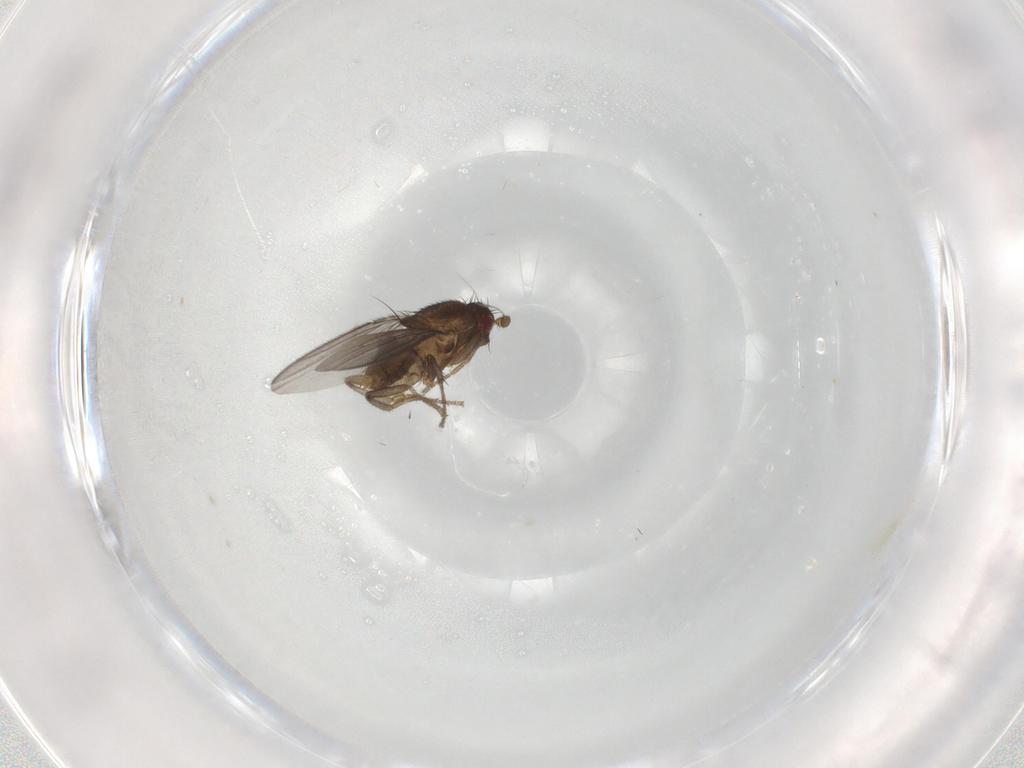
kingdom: Animalia
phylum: Arthropoda
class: Insecta
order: Diptera
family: Sphaeroceridae
